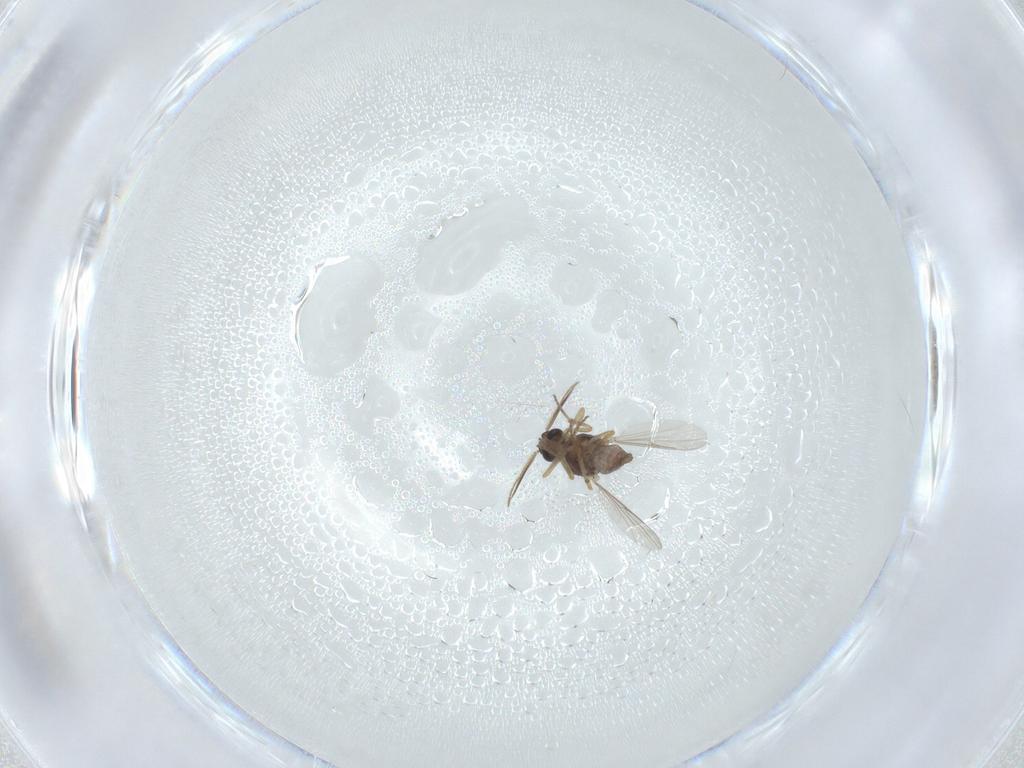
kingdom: Animalia
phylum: Arthropoda
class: Insecta
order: Diptera
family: Ceratopogonidae
